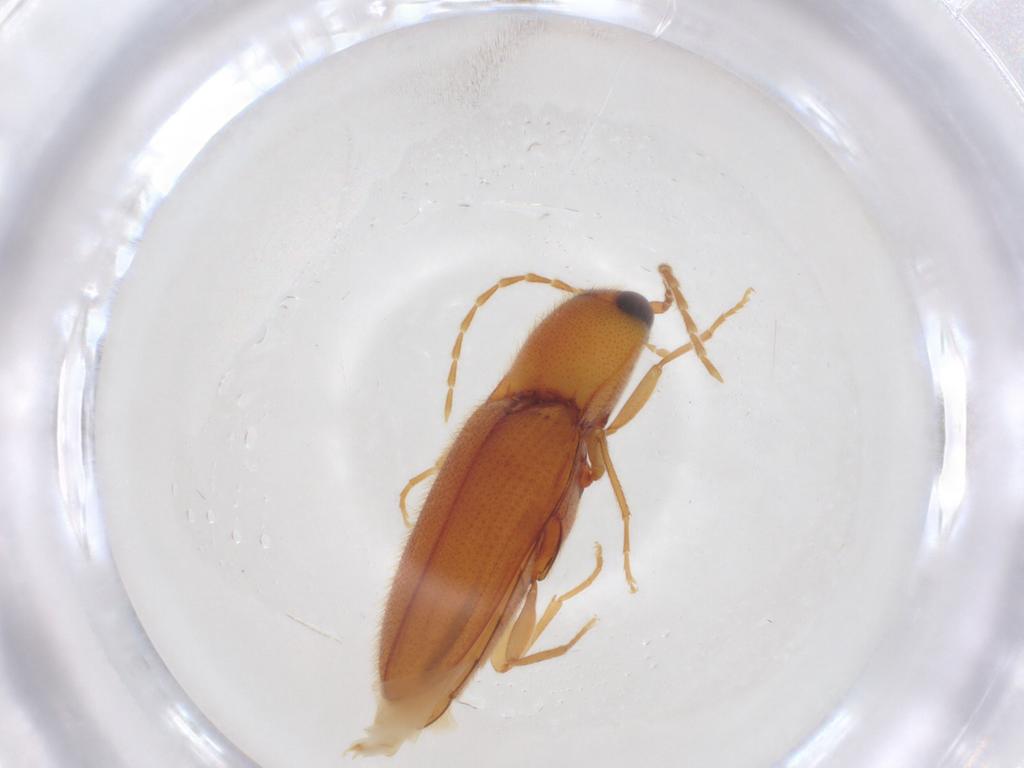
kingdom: Animalia
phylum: Arthropoda
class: Insecta
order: Coleoptera
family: Elateridae
